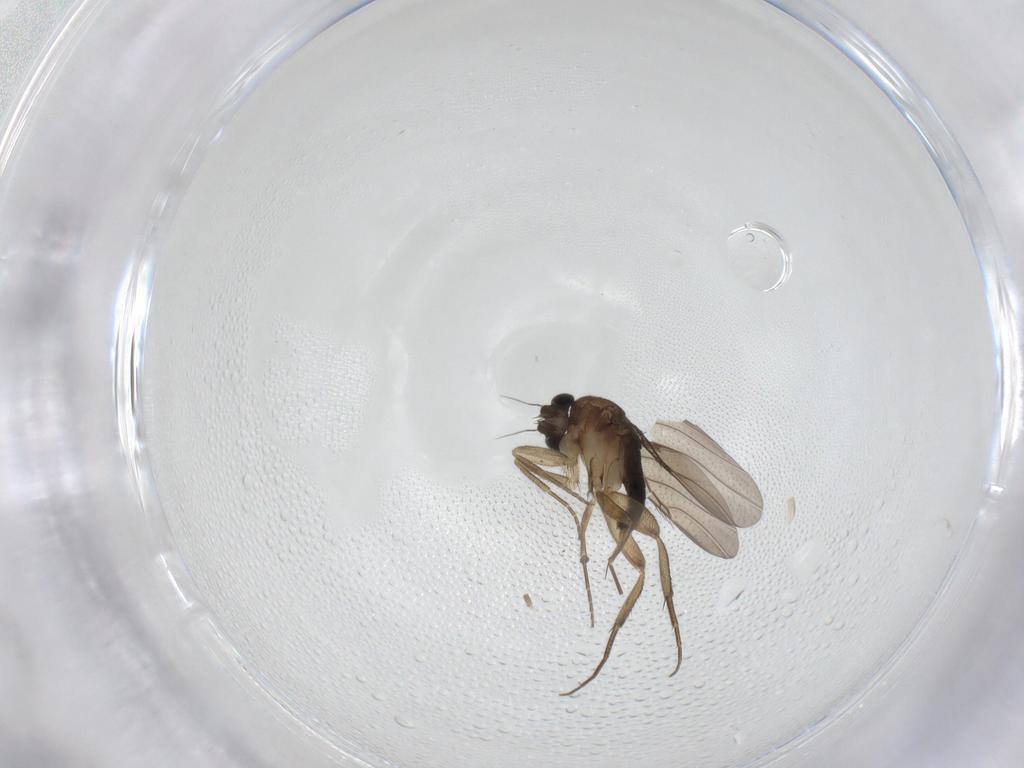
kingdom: Animalia
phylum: Arthropoda
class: Insecta
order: Diptera
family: Phoridae
